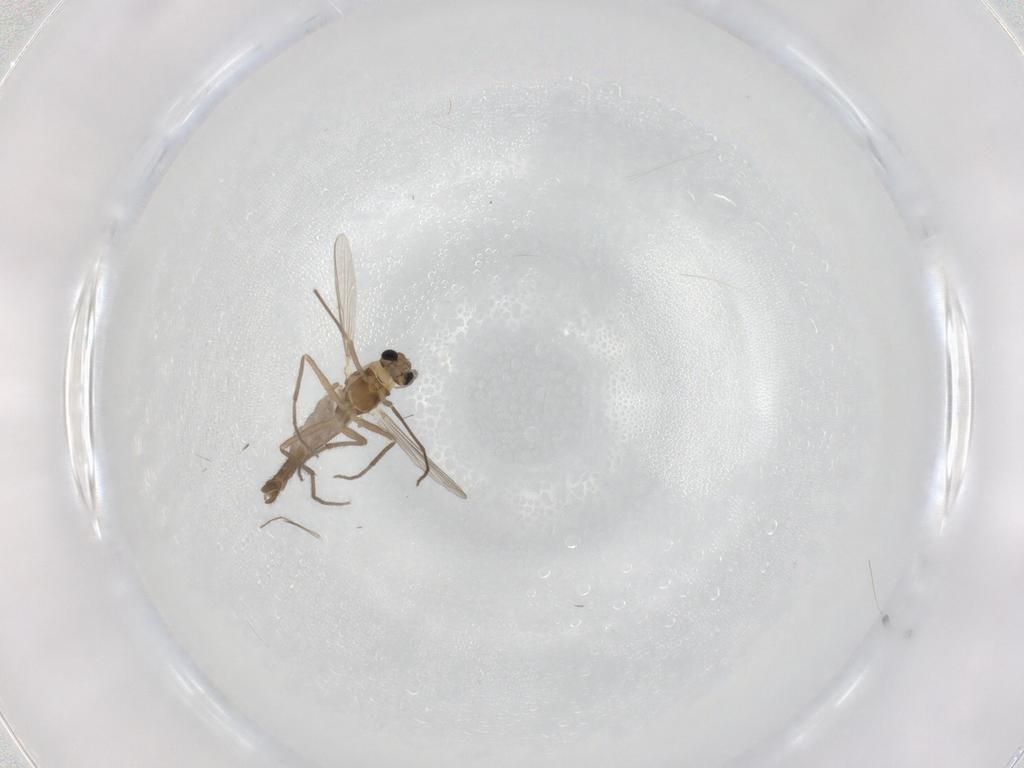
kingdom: Animalia
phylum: Arthropoda
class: Insecta
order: Diptera
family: Chironomidae
